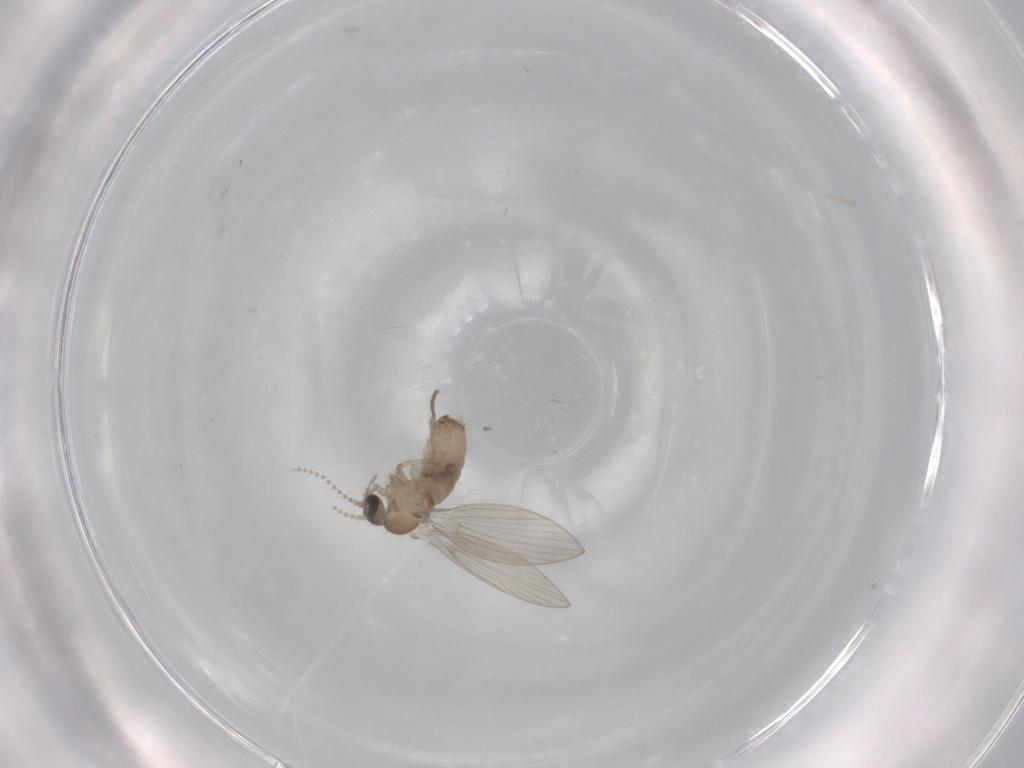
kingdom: Animalia
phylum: Arthropoda
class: Insecta
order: Diptera
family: Psychodidae
